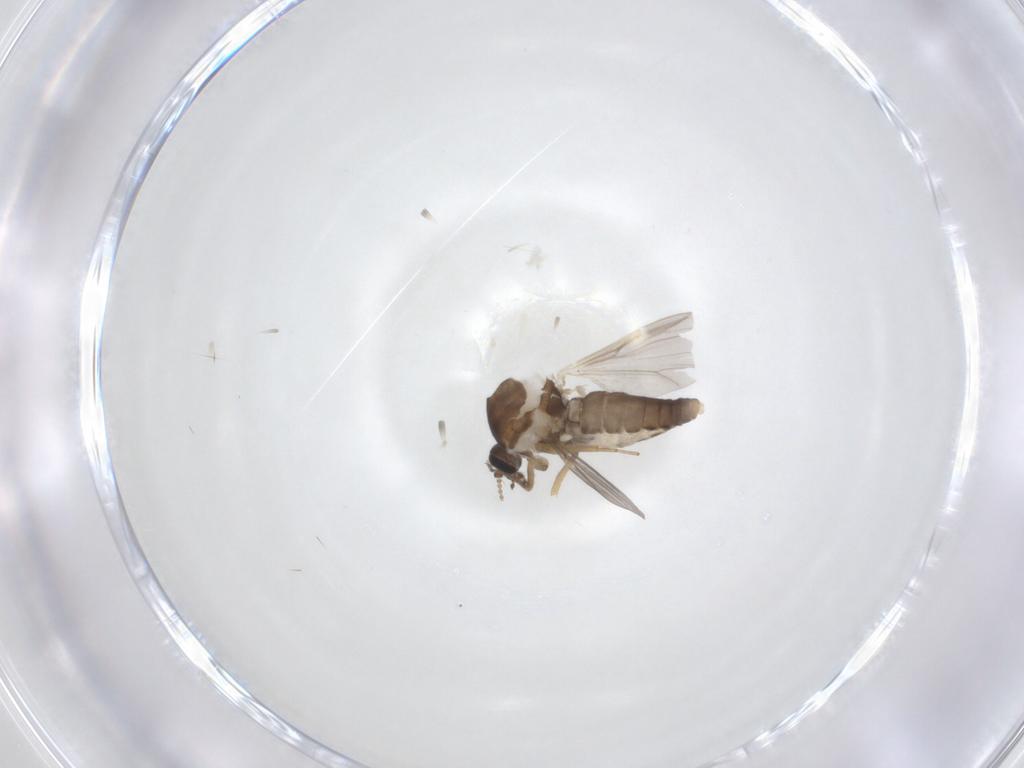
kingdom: Animalia
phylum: Arthropoda
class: Insecta
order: Diptera
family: Ceratopogonidae
